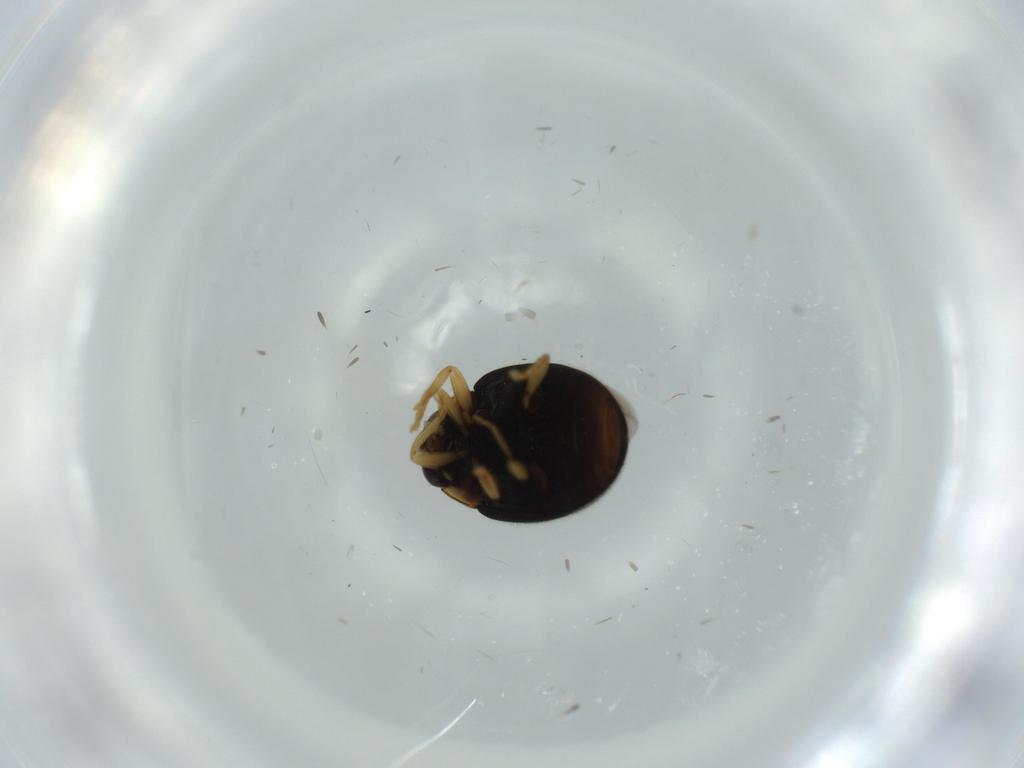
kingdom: Animalia
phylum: Arthropoda
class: Insecta
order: Coleoptera
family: Coccinellidae
